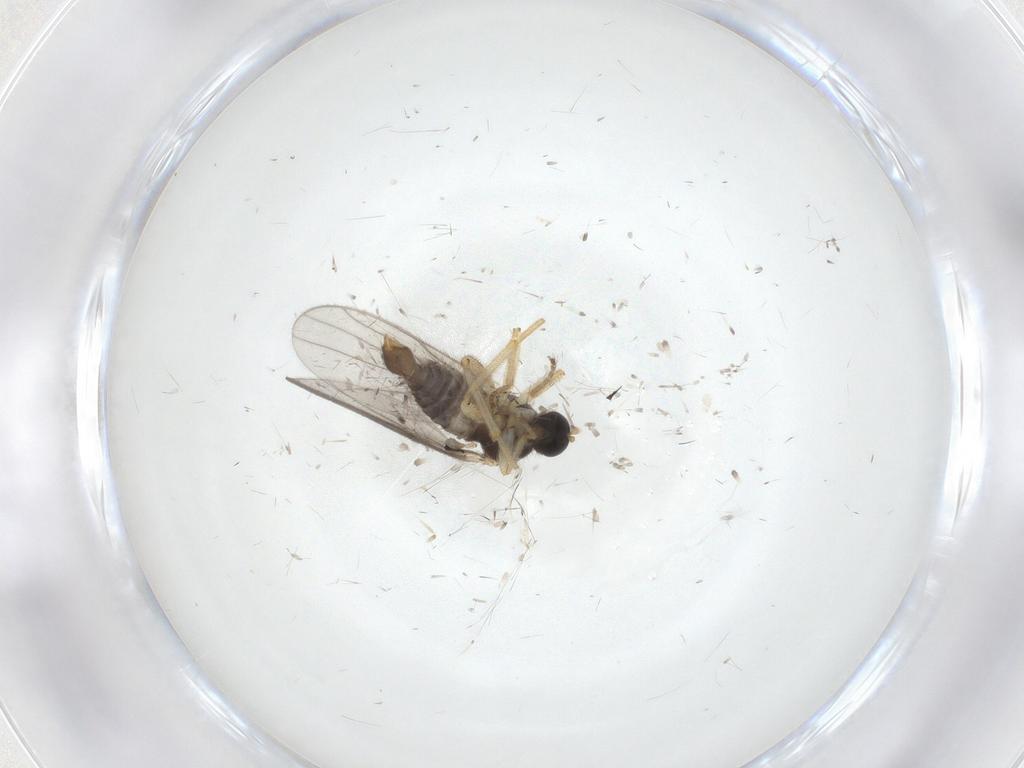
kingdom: Animalia
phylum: Arthropoda
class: Insecta
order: Diptera
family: Hybotidae
